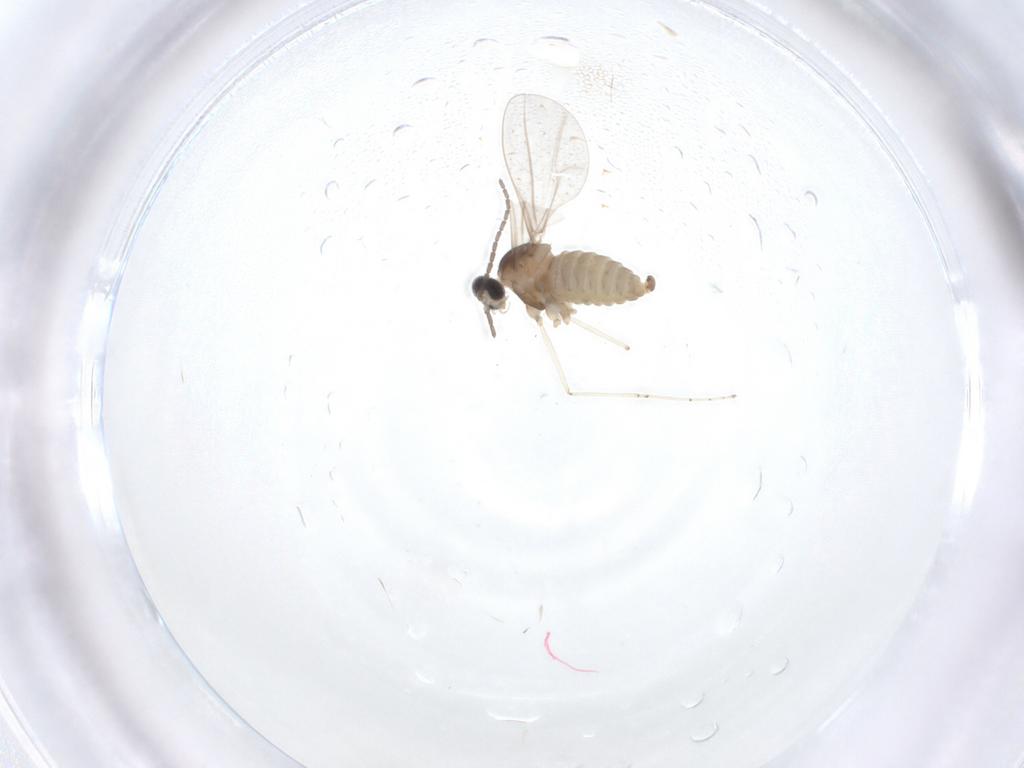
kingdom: Animalia
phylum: Arthropoda
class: Insecta
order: Diptera
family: Cecidomyiidae
